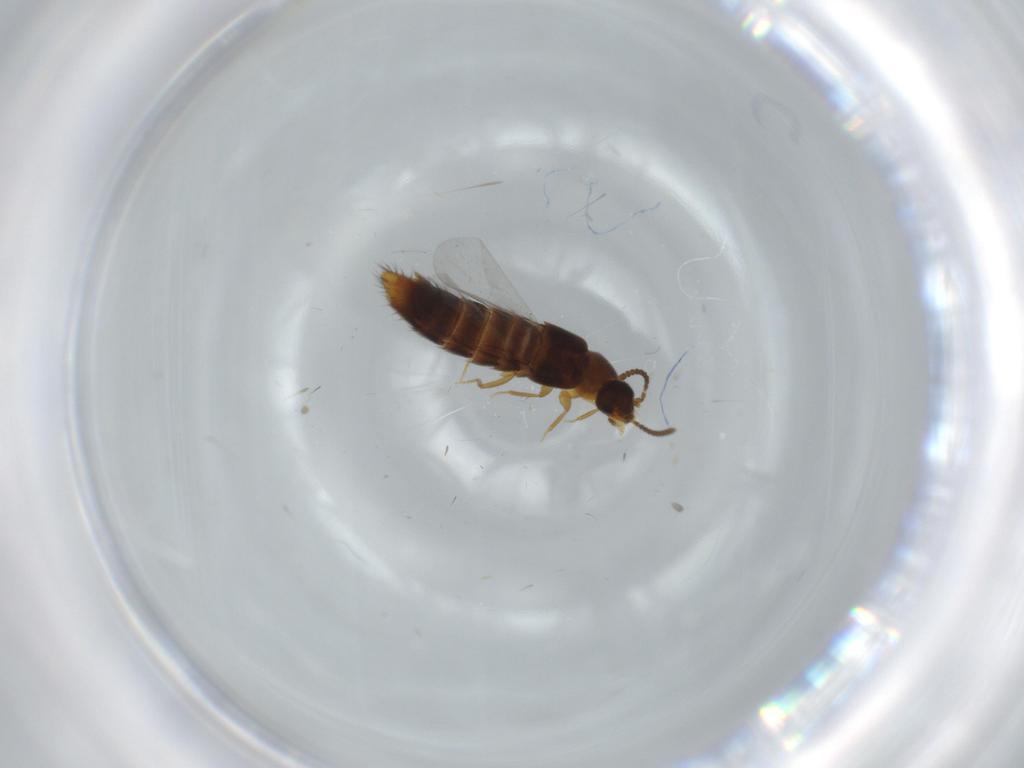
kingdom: Animalia
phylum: Arthropoda
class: Insecta
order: Coleoptera
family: Staphylinidae
